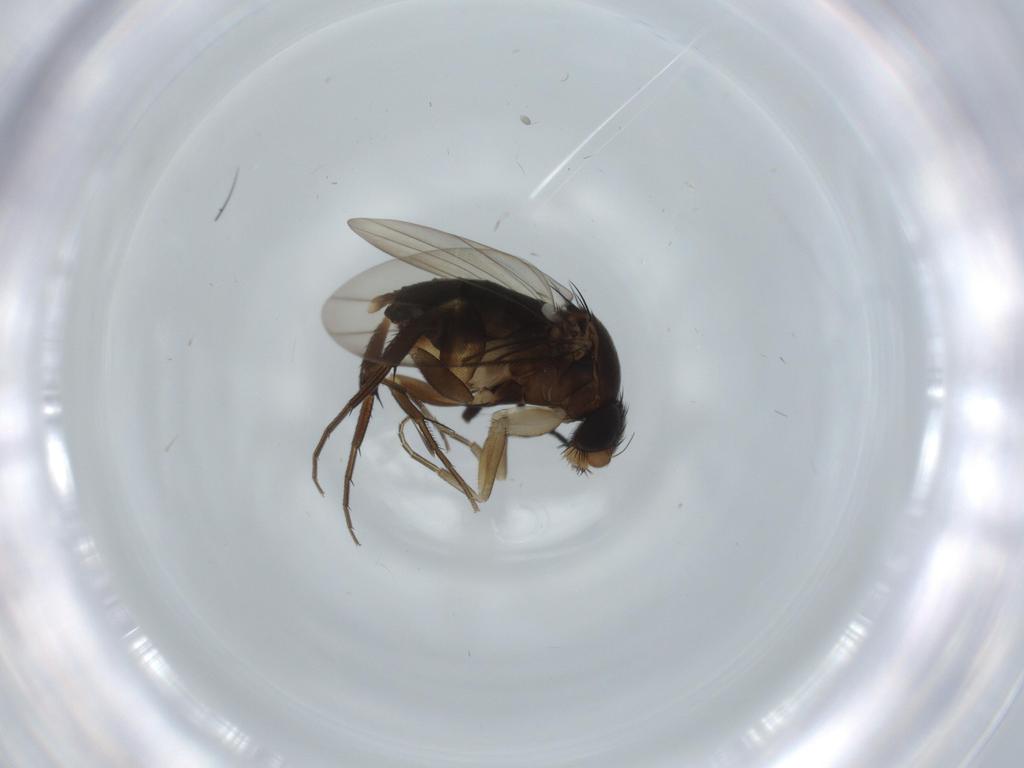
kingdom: Animalia
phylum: Arthropoda
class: Insecta
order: Diptera
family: Phoridae
